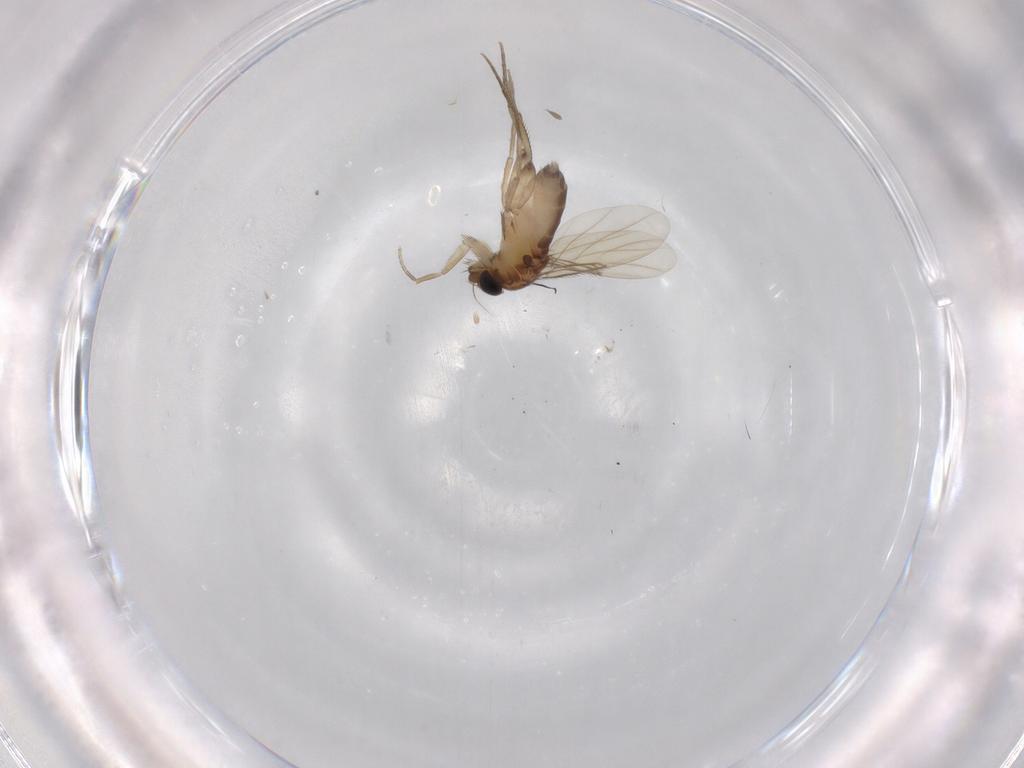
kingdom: Animalia
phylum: Arthropoda
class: Insecta
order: Diptera
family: Phoridae
